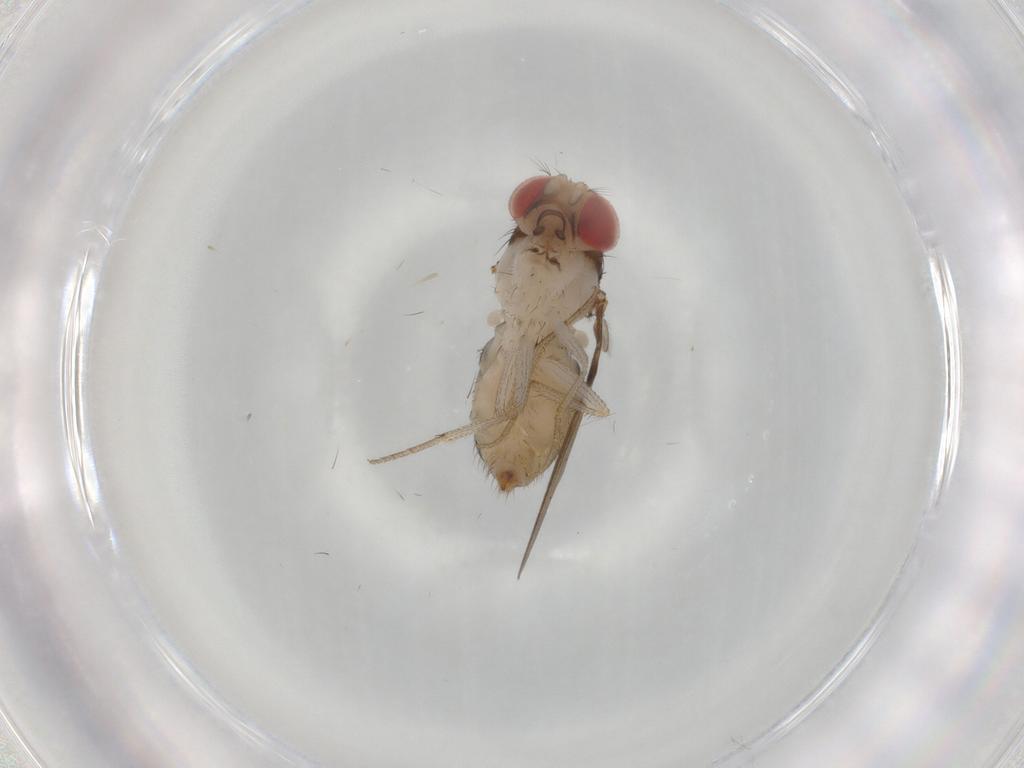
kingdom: Animalia
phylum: Arthropoda
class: Insecta
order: Diptera
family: Drosophilidae
